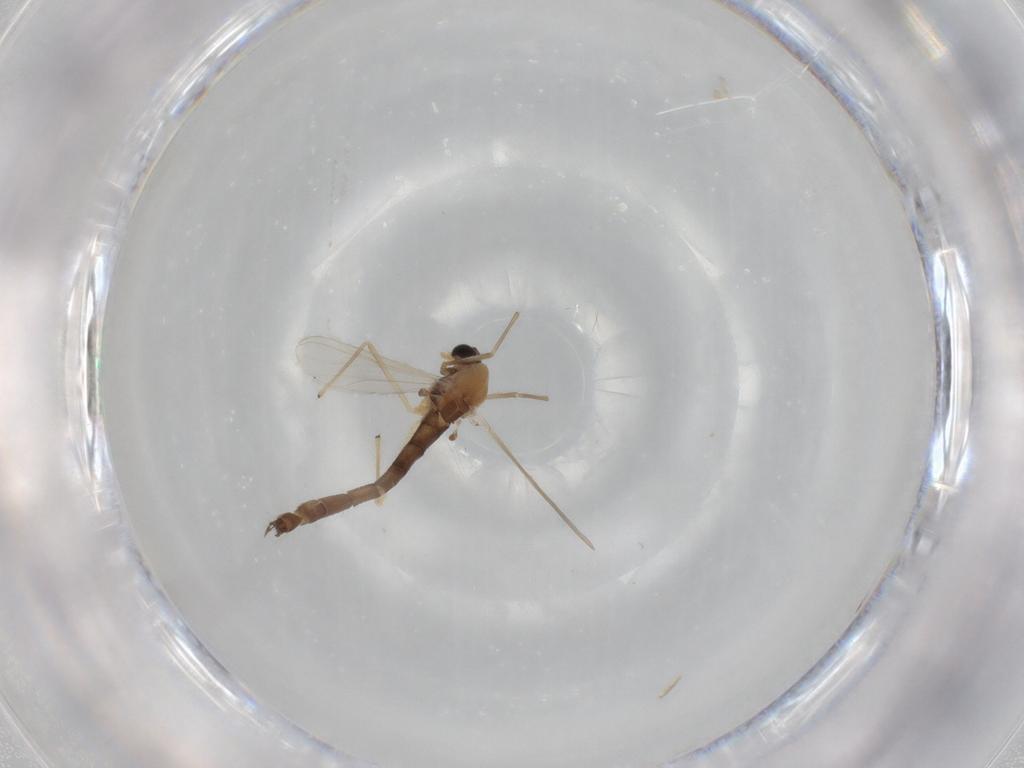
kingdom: Animalia
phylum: Arthropoda
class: Insecta
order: Diptera
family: Chironomidae
